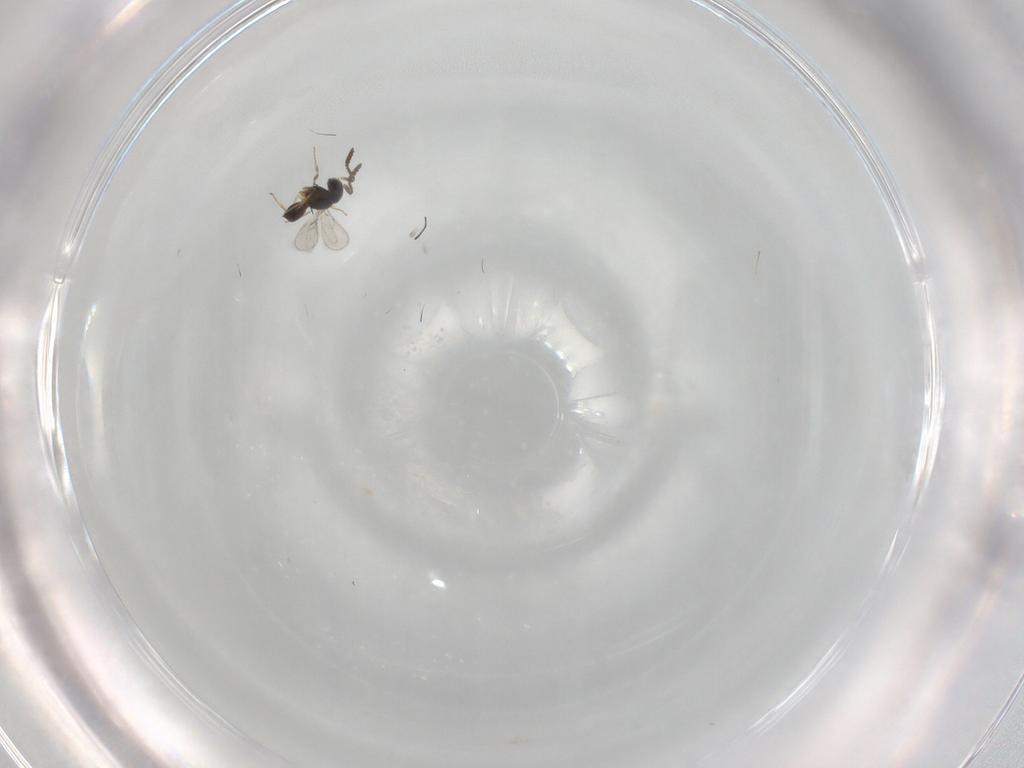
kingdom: Animalia
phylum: Arthropoda
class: Insecta
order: Hymenoptera
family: Scelionidae
